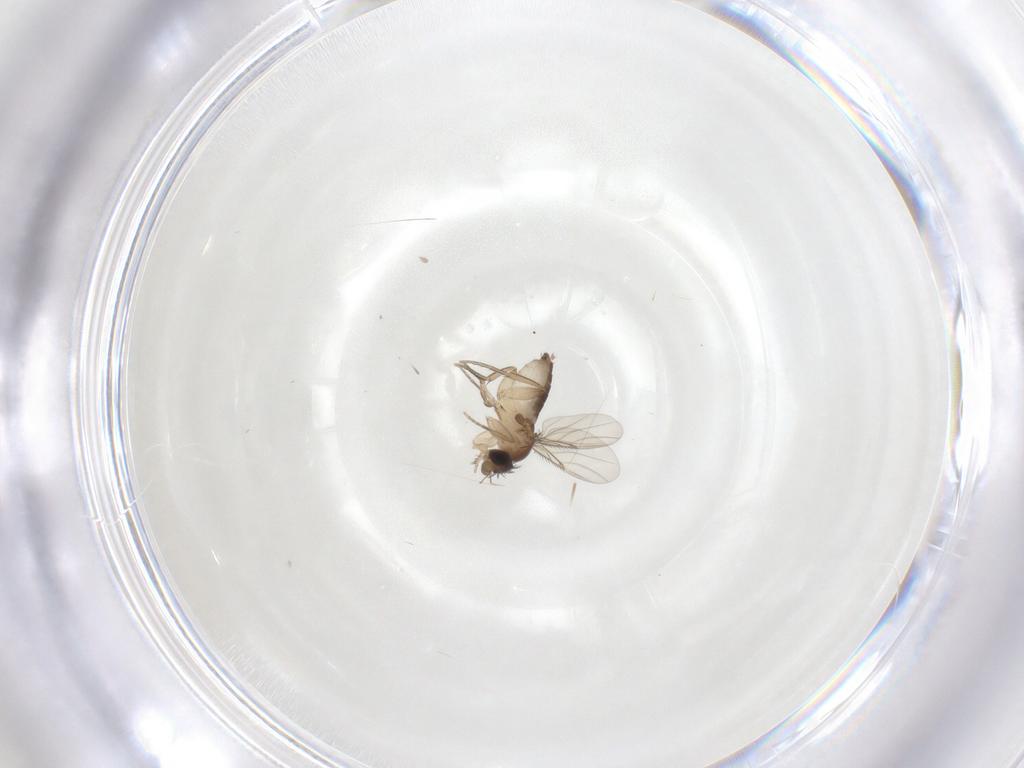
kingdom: Animalia
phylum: Arthropoda
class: Insecta
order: Diptera
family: Phoridae
